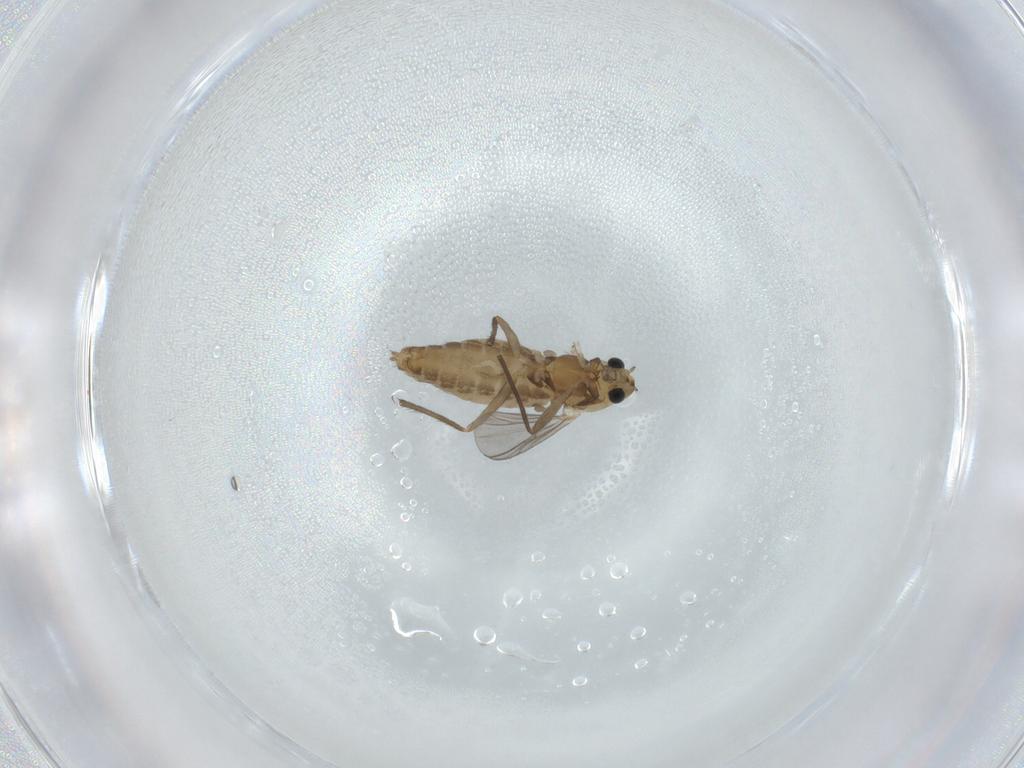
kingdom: Animalia
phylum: Arthropoda
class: Insecta
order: Diptera
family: Chironomidae
